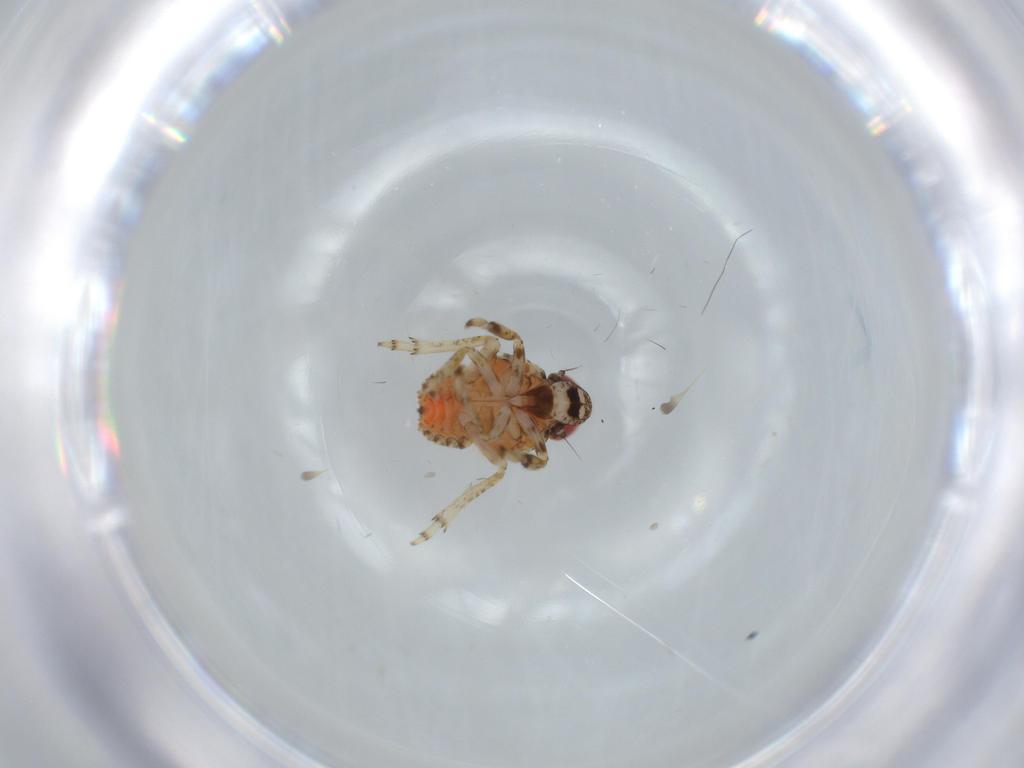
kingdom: Animalia
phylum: Arthropoda
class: Insecta
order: Hemiptera
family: Issidae
